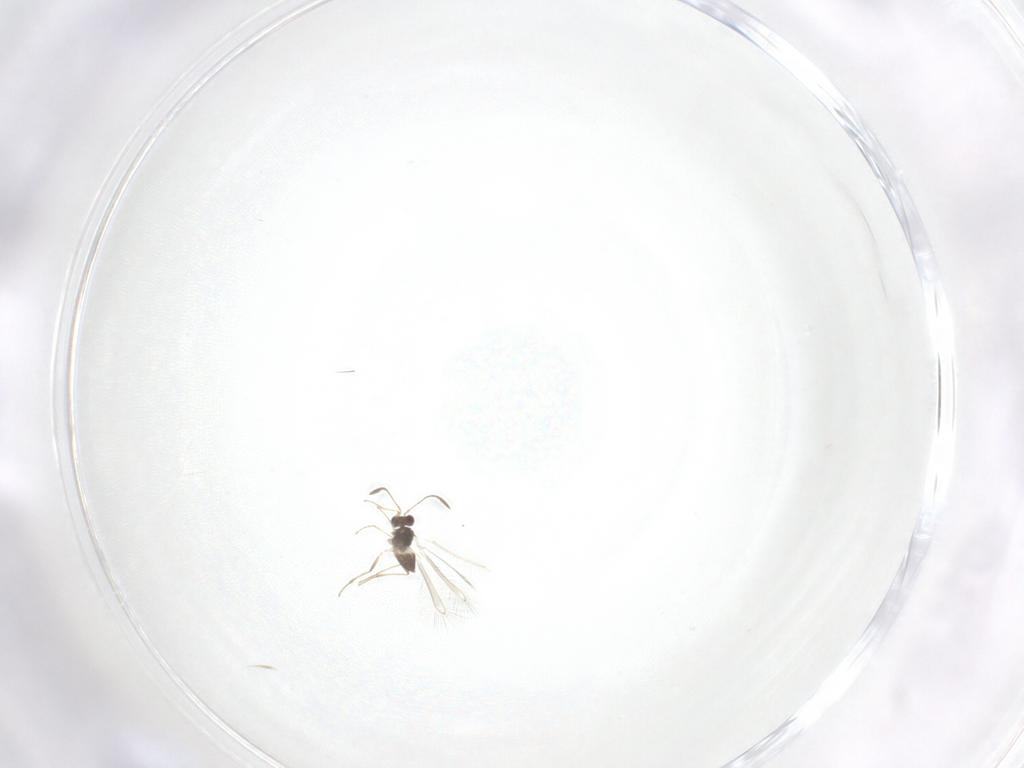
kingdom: Animalia
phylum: Arthropoda
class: Insecta
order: Hymenoptera
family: Mymaridae
